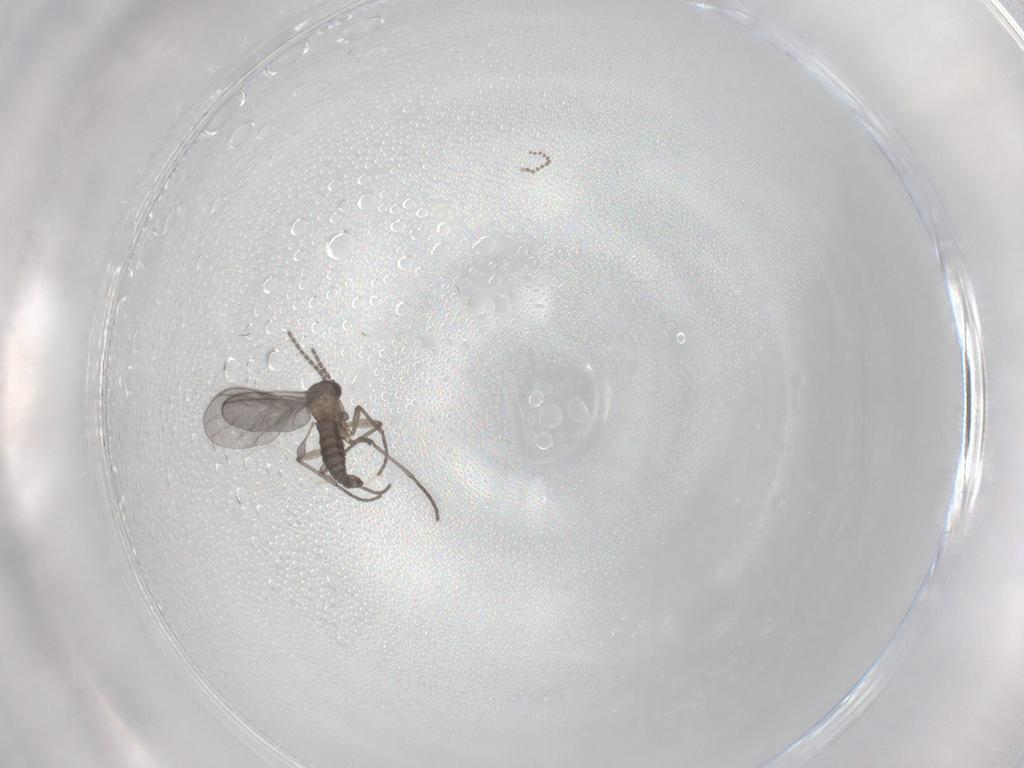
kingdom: Animalia
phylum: Arthropoda
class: Insecta
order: Diptera
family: Sciaridae
